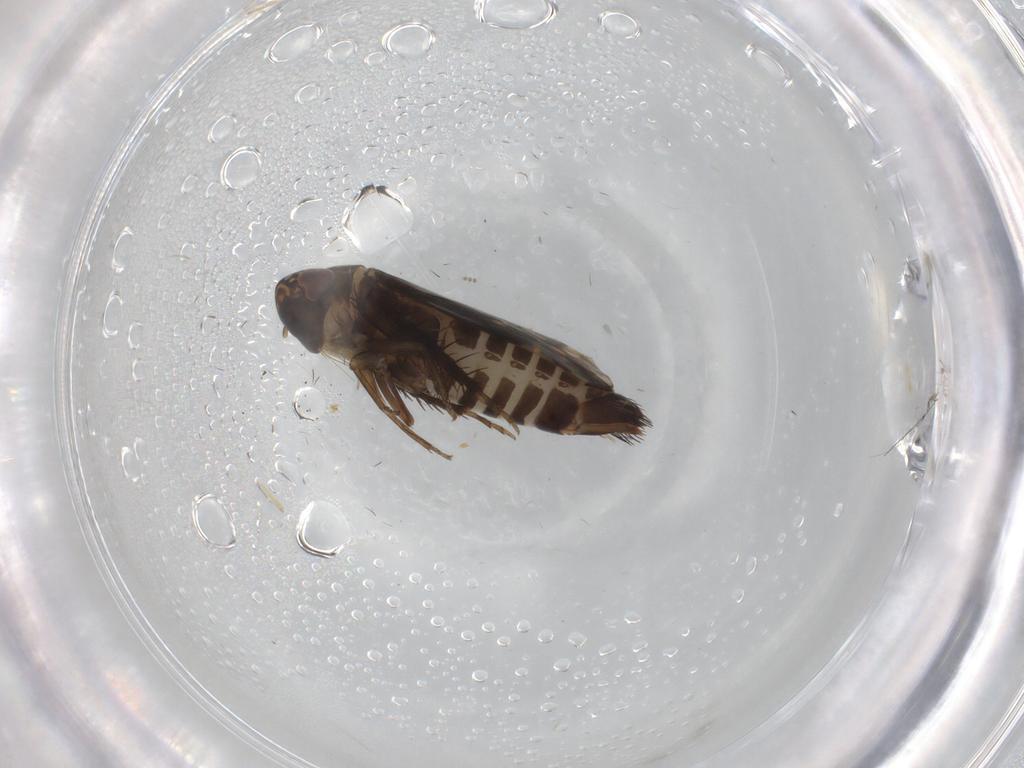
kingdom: Animalia
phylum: Arthropoda
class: Insecta
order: Hemiptera
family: Cicadellidae
